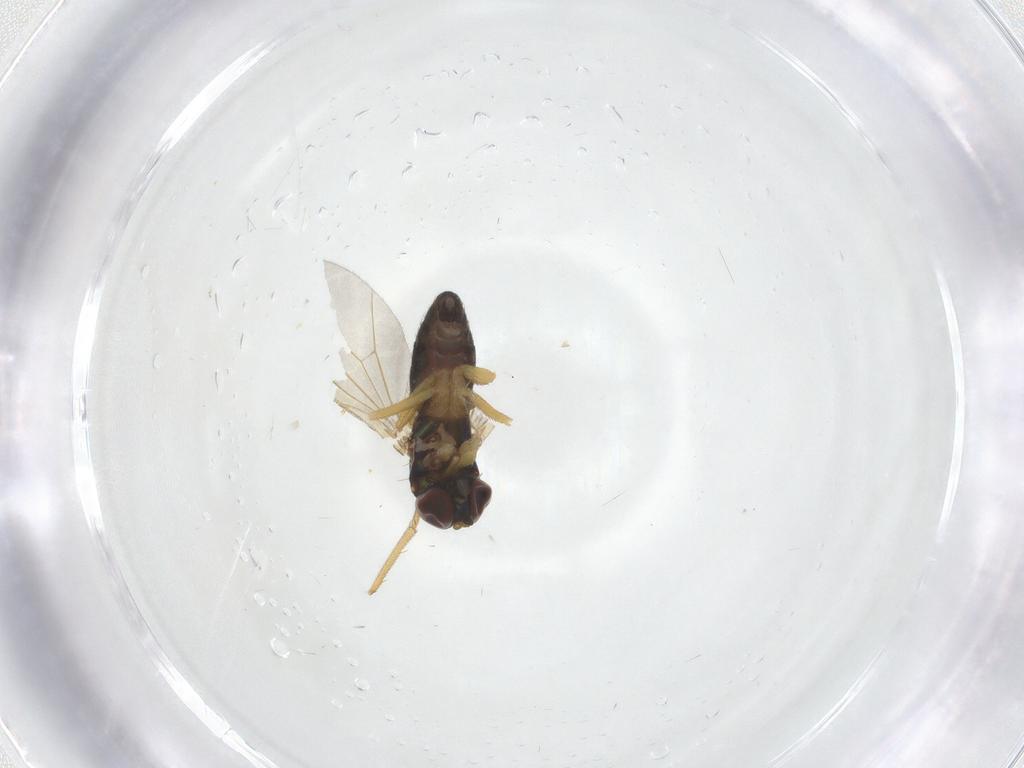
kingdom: Animalia
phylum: Arthropoda
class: Insecta
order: Diptera
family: Dolichopodidae
